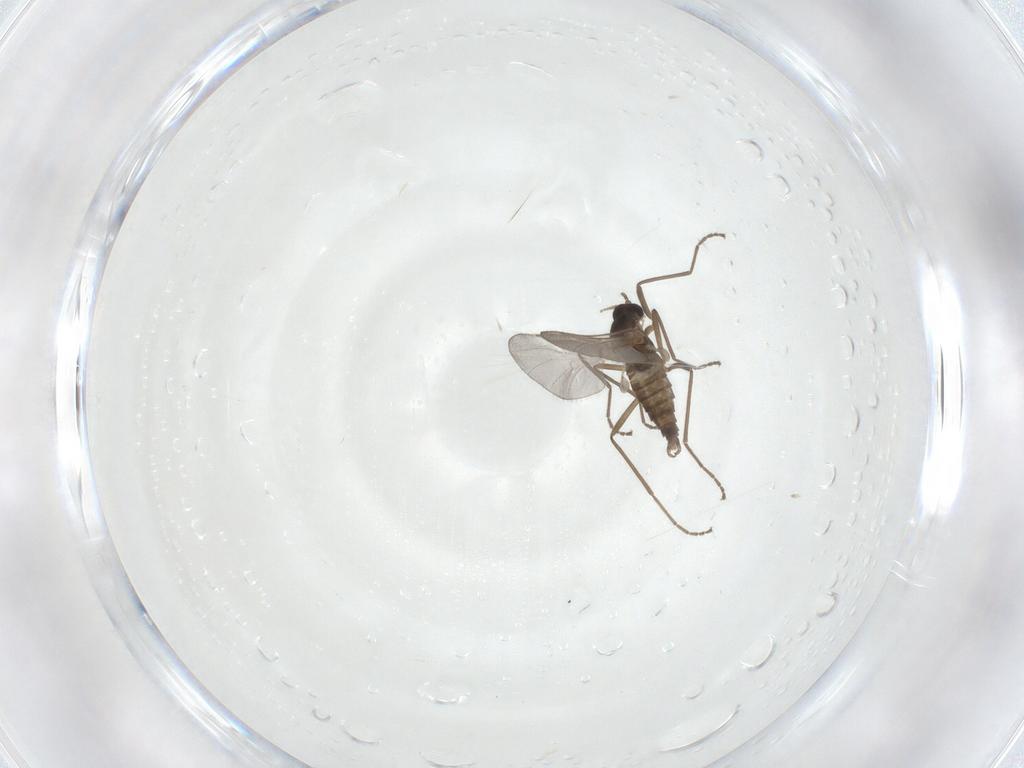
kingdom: Animalia
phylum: Arthropoda
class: Insecta
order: Diptera
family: Cecidomyiidae
